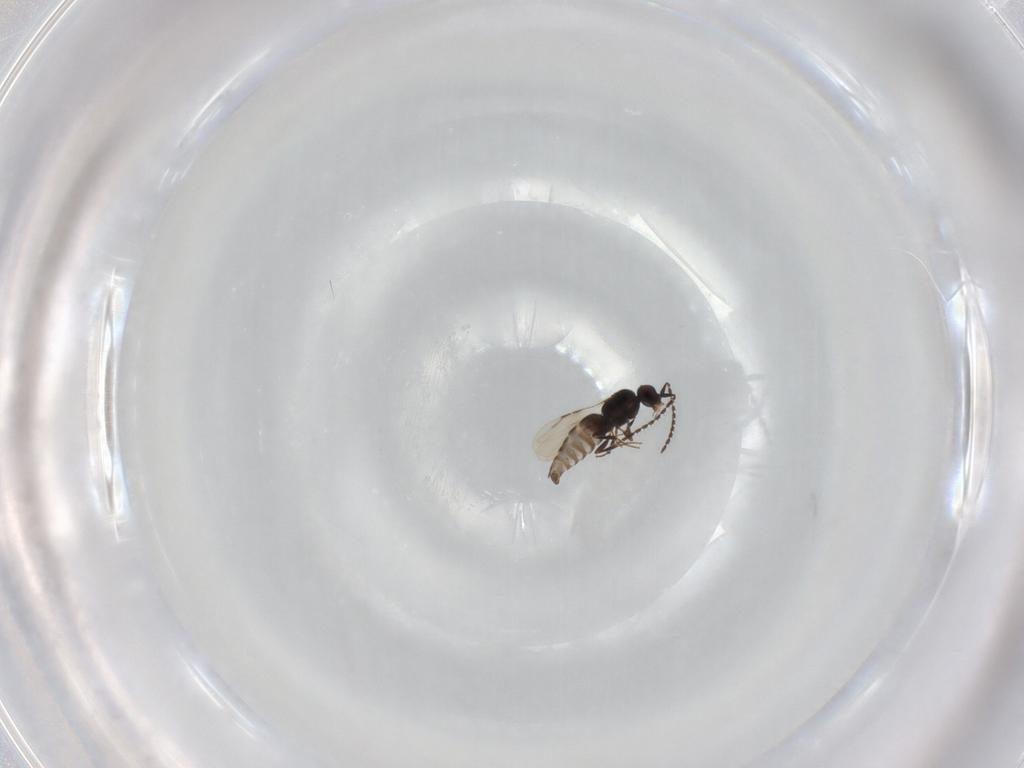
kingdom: Animalia
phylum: Arthropoda
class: Insecta
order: Hymenoptera
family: Ceraphronidae
